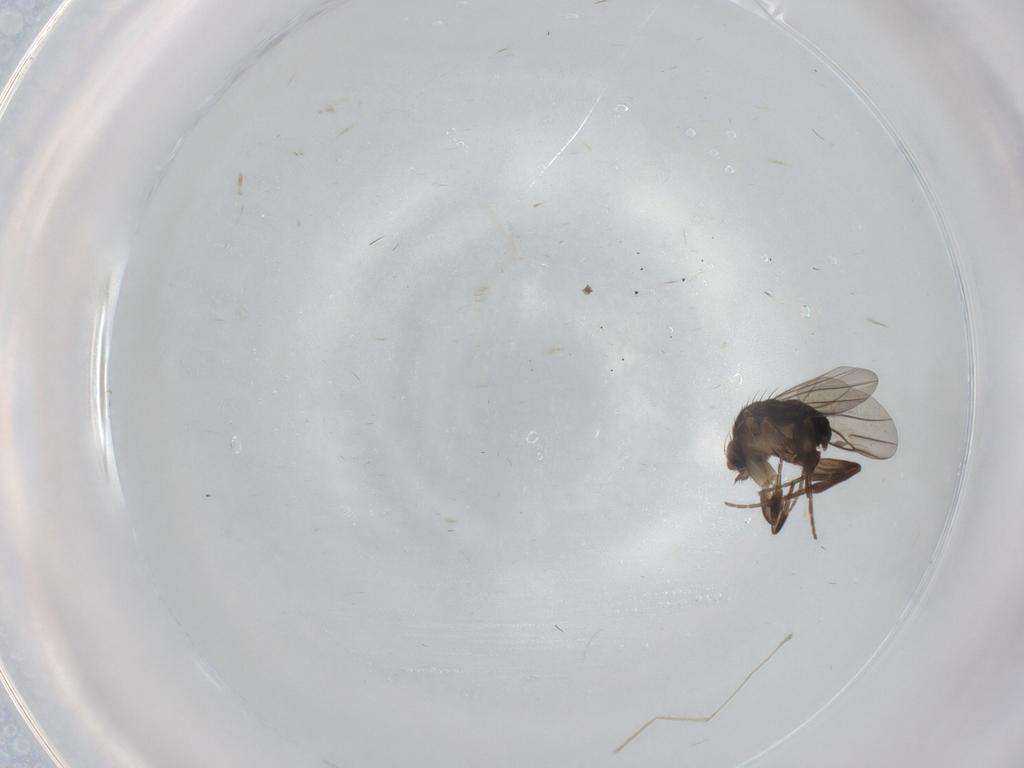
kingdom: Animalia
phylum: Arthropoda
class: Insecta
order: Diptera
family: Phoridae
